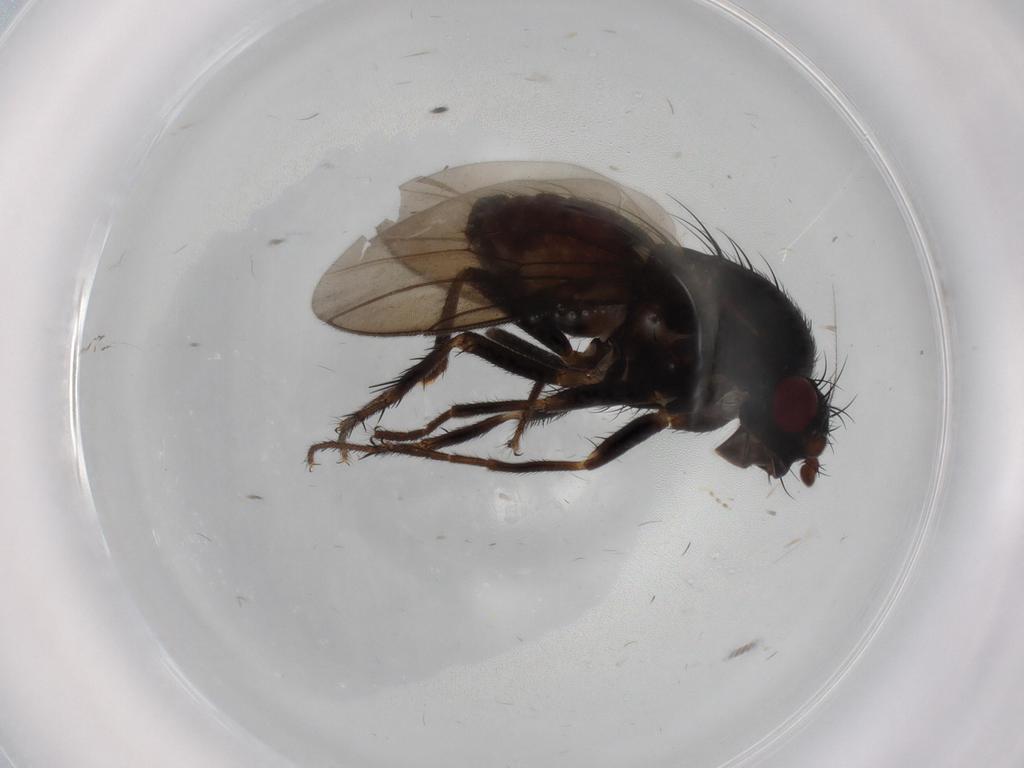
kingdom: Animalia
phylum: Arthropoda
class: Insecta
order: Diptera
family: Sphaeroceridae
